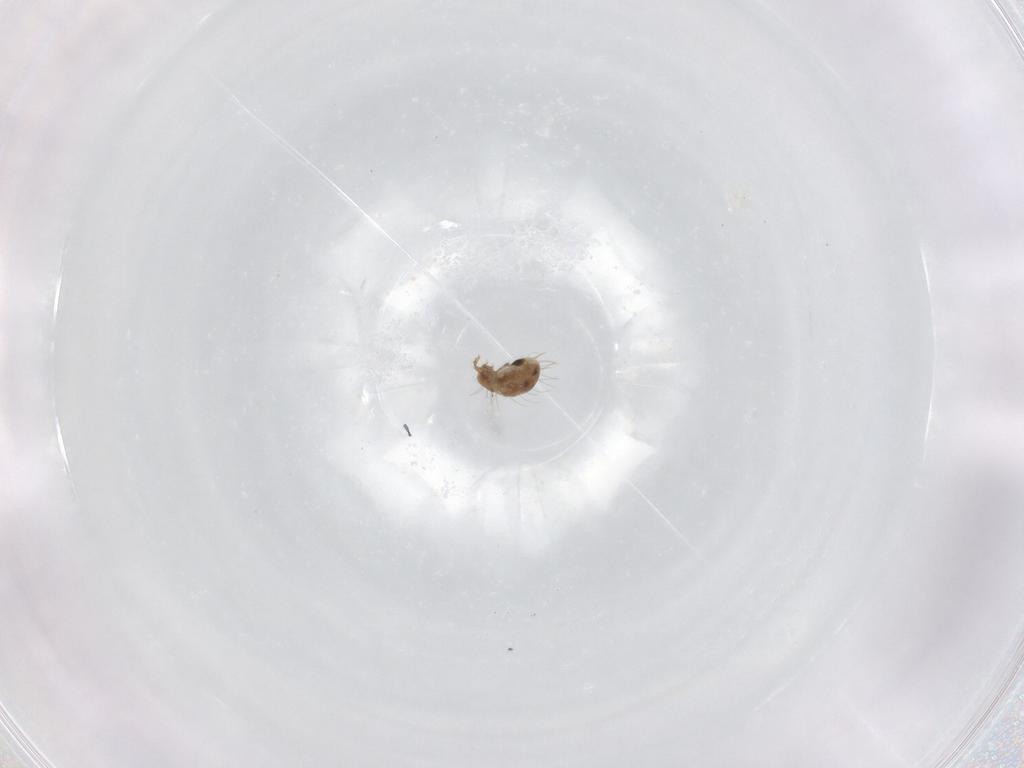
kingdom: Animalia
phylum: Arthropoda
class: Arachnida
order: Sarcoptiformes
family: Ceratozetidae
